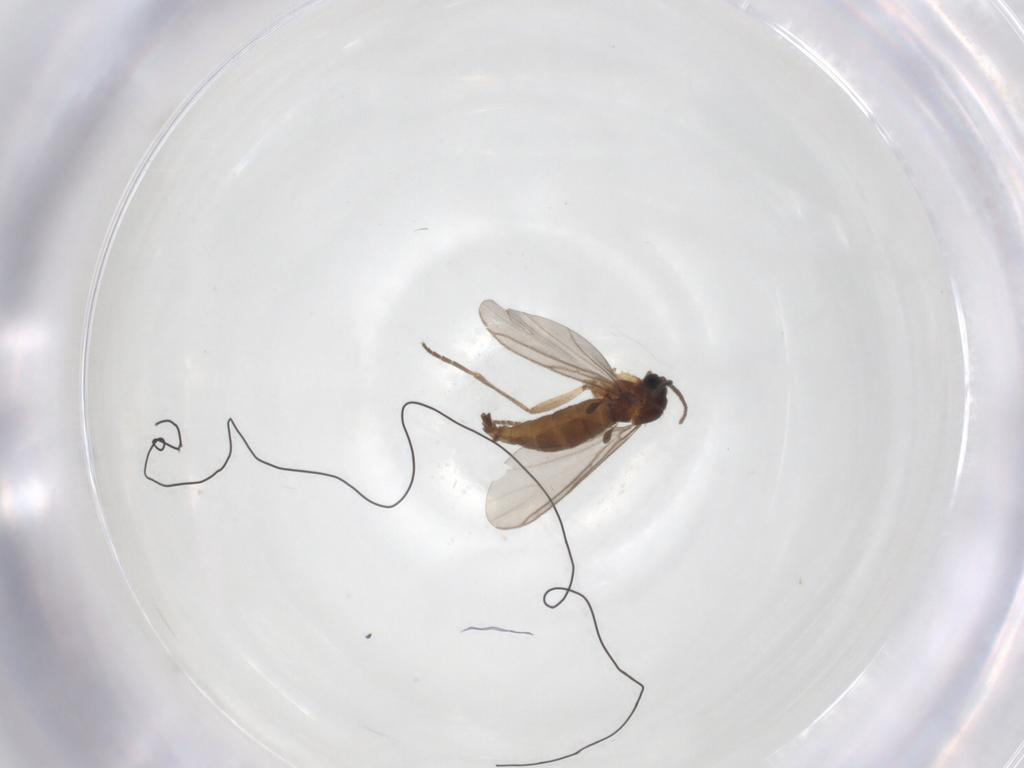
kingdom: Animalia
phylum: Arthropoda
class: Insecta
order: Diptera
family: Sciaridae
